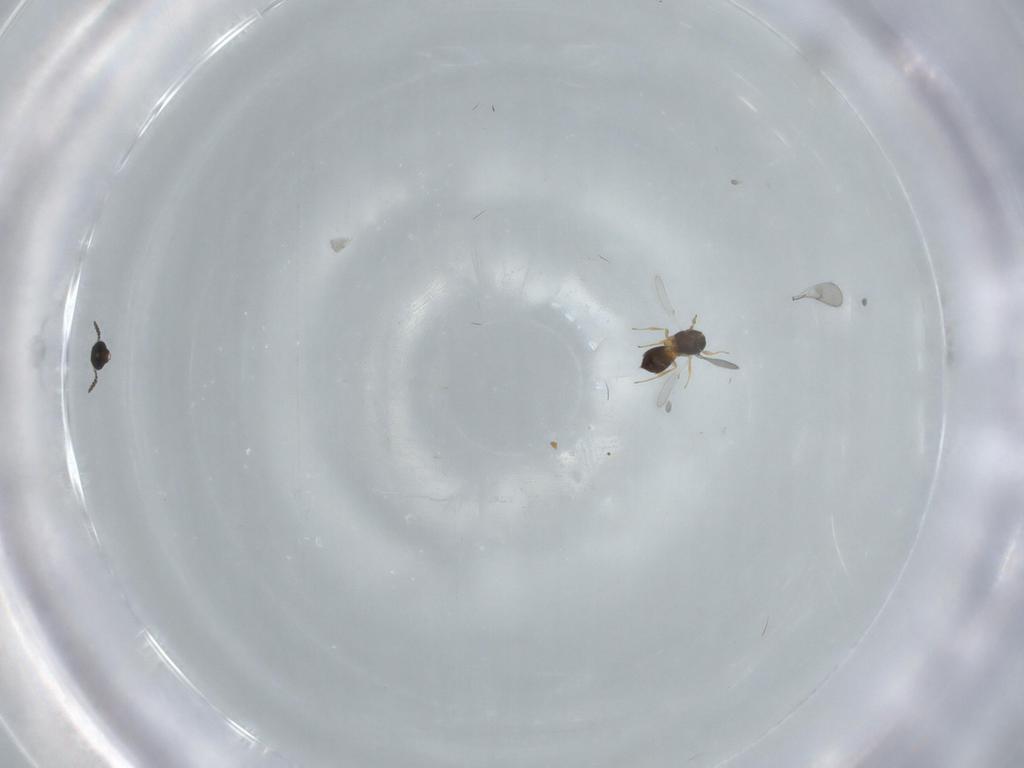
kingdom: Animalia
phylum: Arthropoda
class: Insecta
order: Hymenoptera
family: Scelionidae
